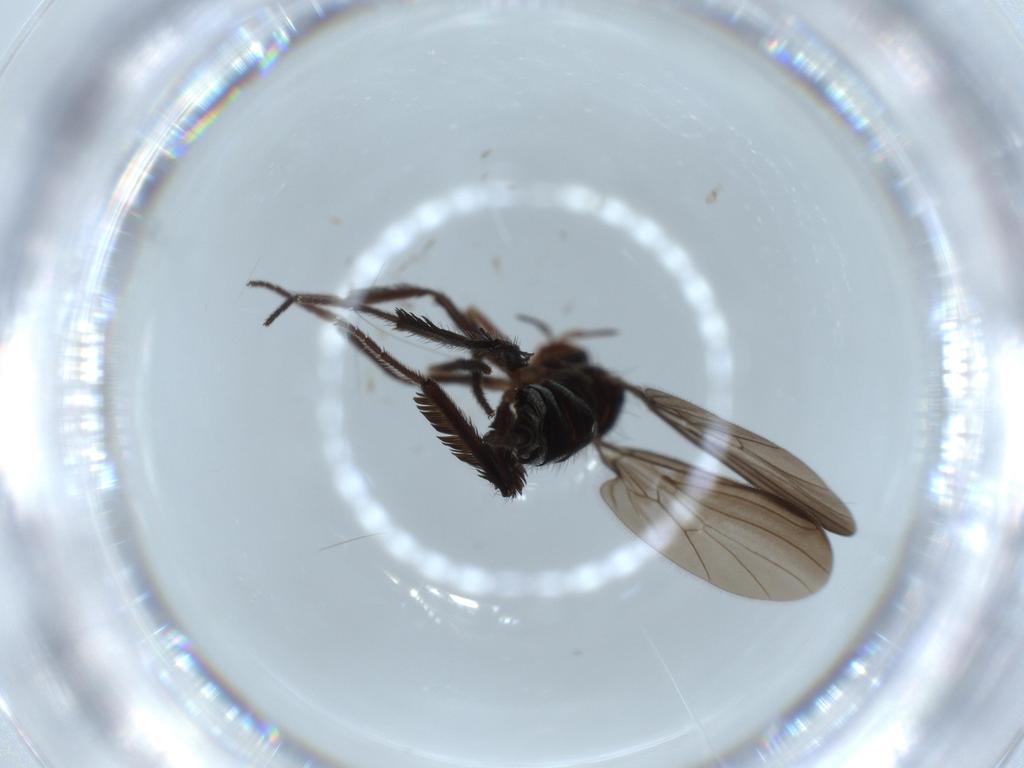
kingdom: Animalia
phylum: Arthropoda
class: Insecta
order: Diptera
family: Empididae
